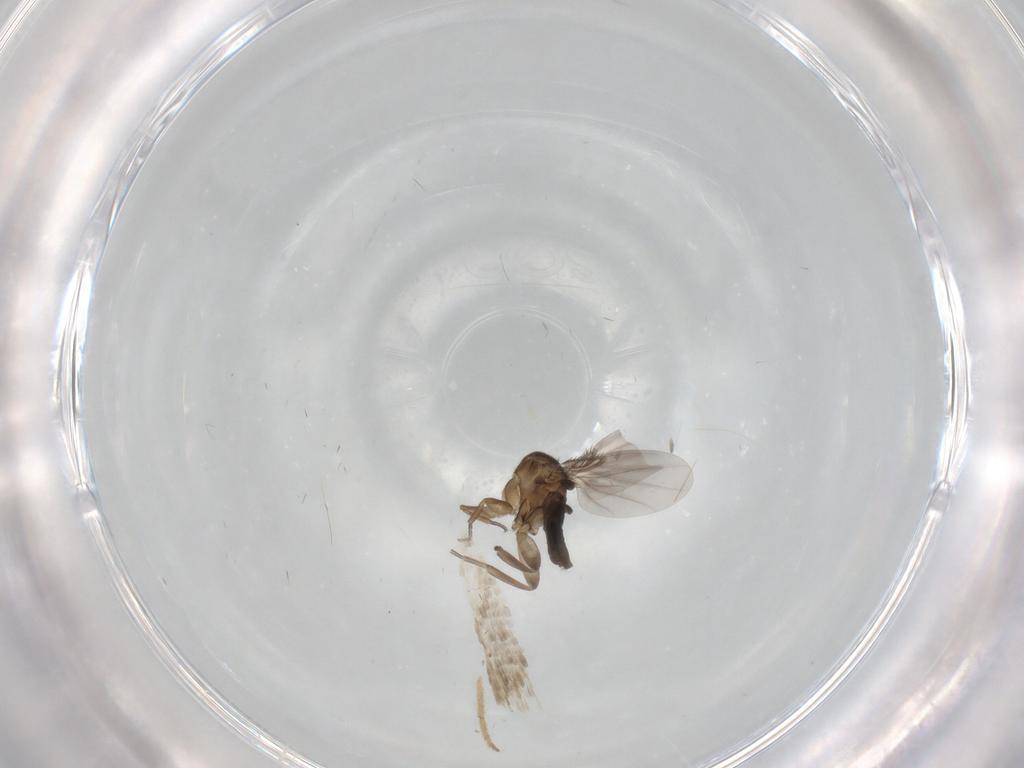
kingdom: Animalia
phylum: Arthropoda
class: Insecta
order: Diptera
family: Phoridae
